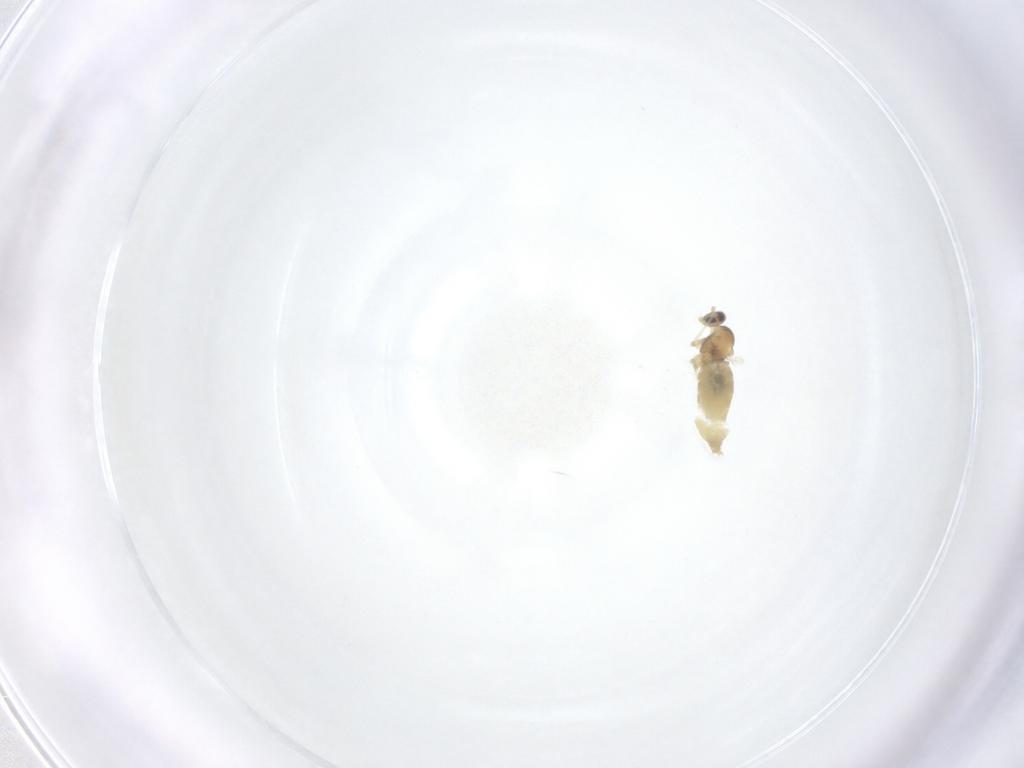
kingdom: Animalia
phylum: Arthropoda
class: Insecta
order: Diptera
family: Cecidomyiidae
